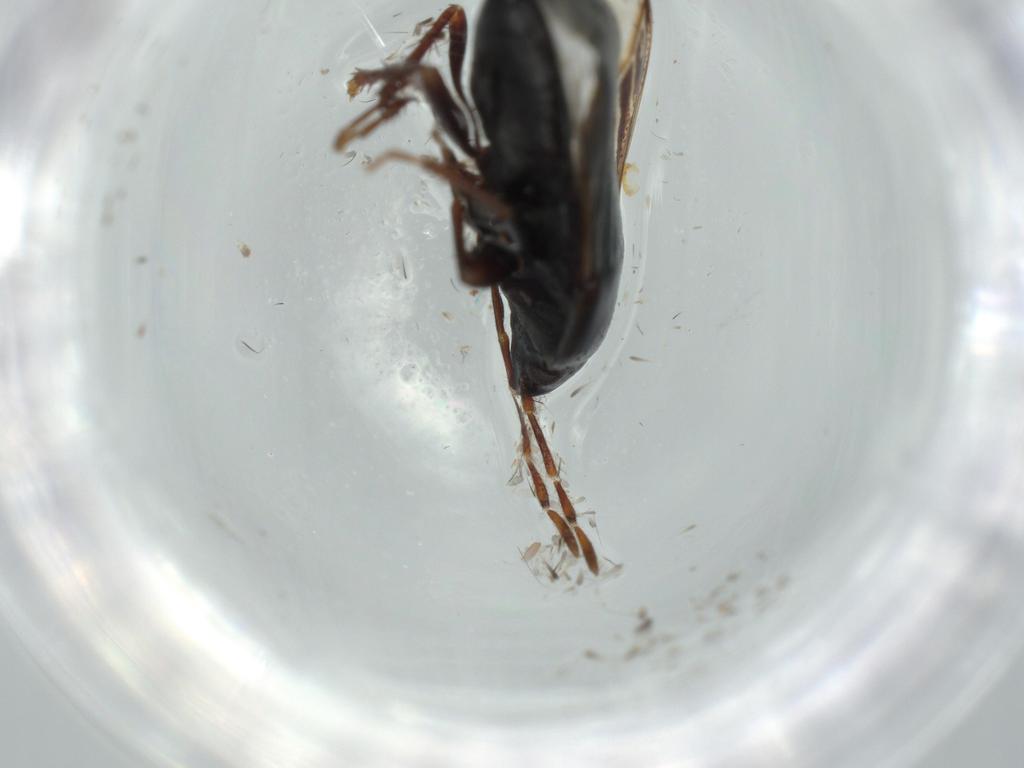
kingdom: Animalia
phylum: Arthropoda
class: Insecta
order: Hemiptera
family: Rhyparochromidae
